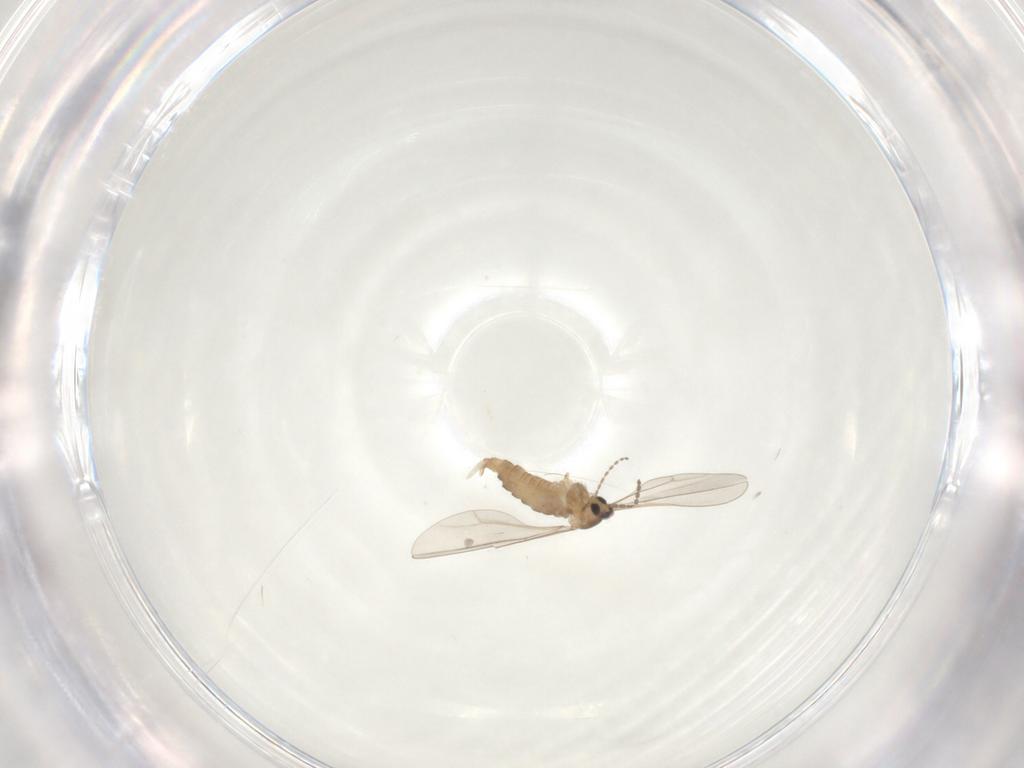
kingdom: Animalia
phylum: Arthropoda
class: Insecta
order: Diptera
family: Cecidomyiidae
